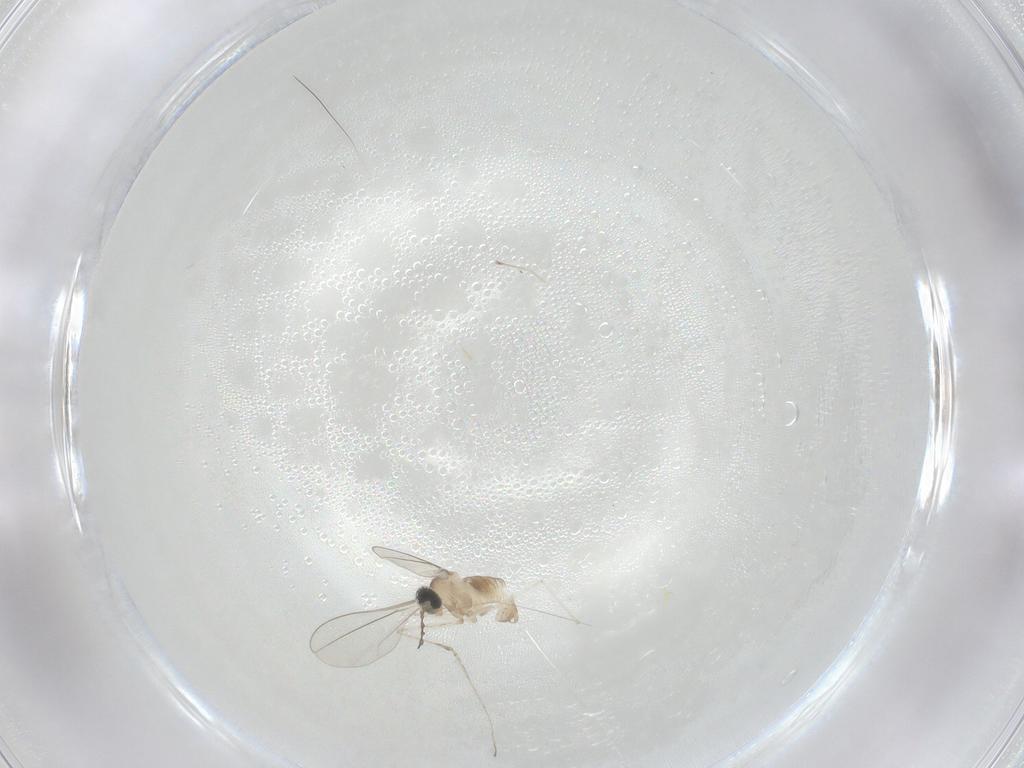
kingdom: Animalia
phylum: Arthropoda
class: Insecta
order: Diptera
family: Cecidomyiidae
